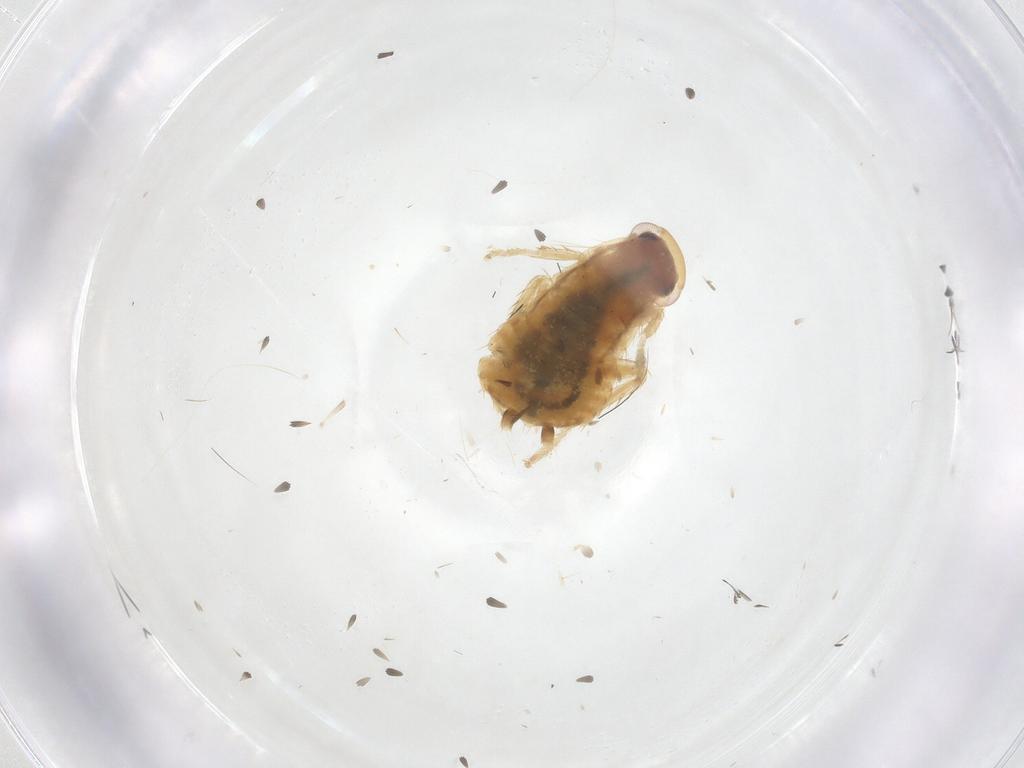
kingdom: Animalia
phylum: Arthropoda
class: Insecta
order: Blattodea
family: Ectobiidae
